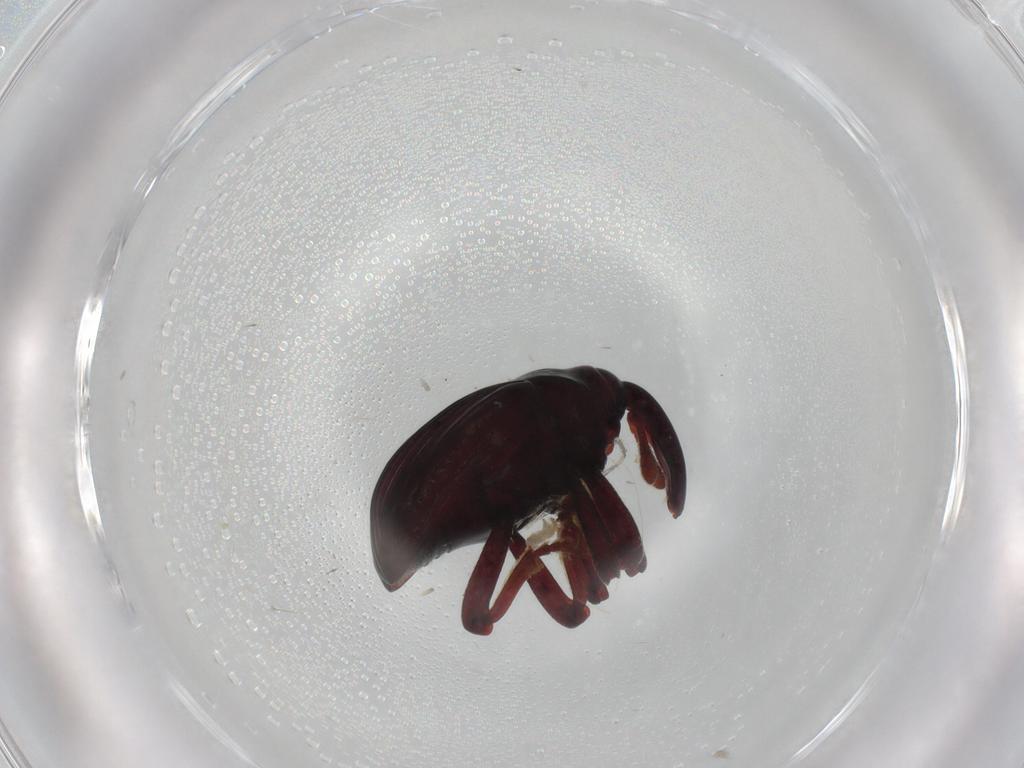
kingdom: Animalia
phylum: Arthropoda
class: Insecta
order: Coleoptera
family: Curculionidae
